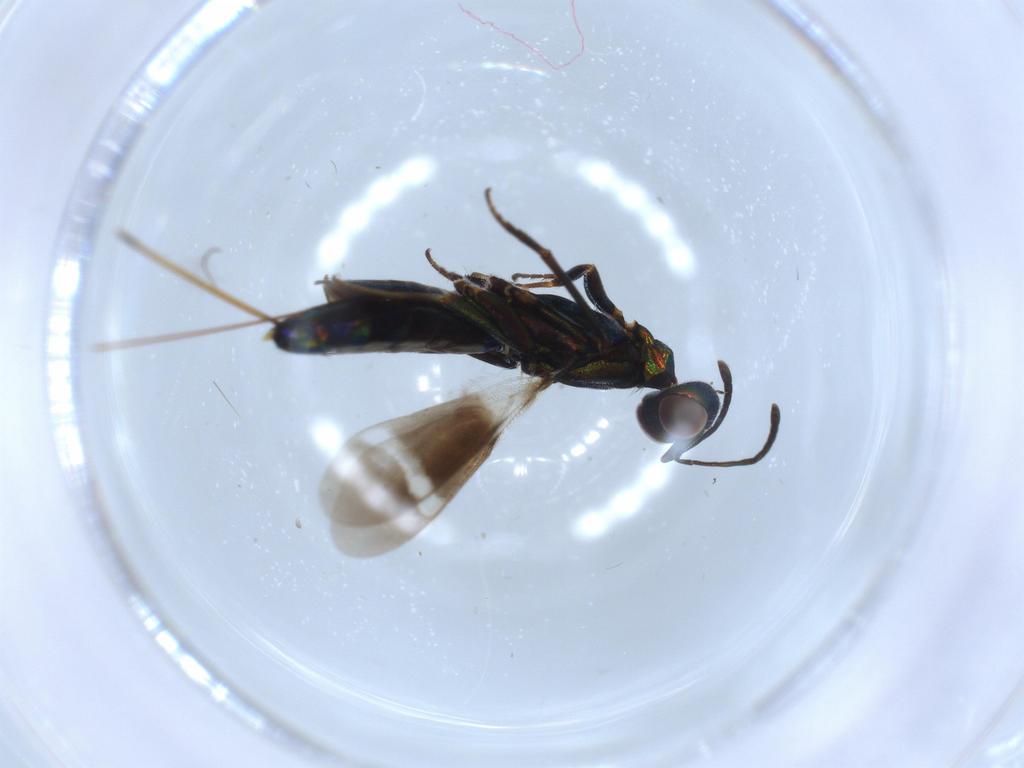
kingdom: Animalia
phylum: Arthropoda
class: Insecta
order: Hymenoptera
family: Eupelmidae
